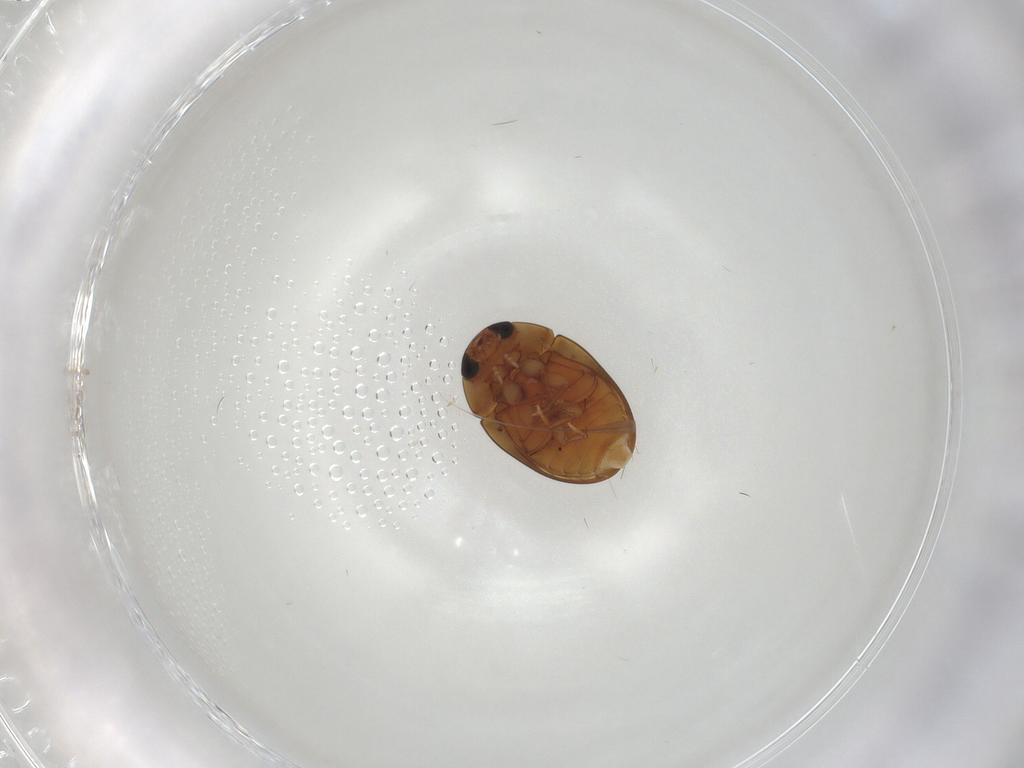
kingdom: Animalia
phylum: Arthropoda
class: Insecta
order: Coleoptera
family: Phalacridae
